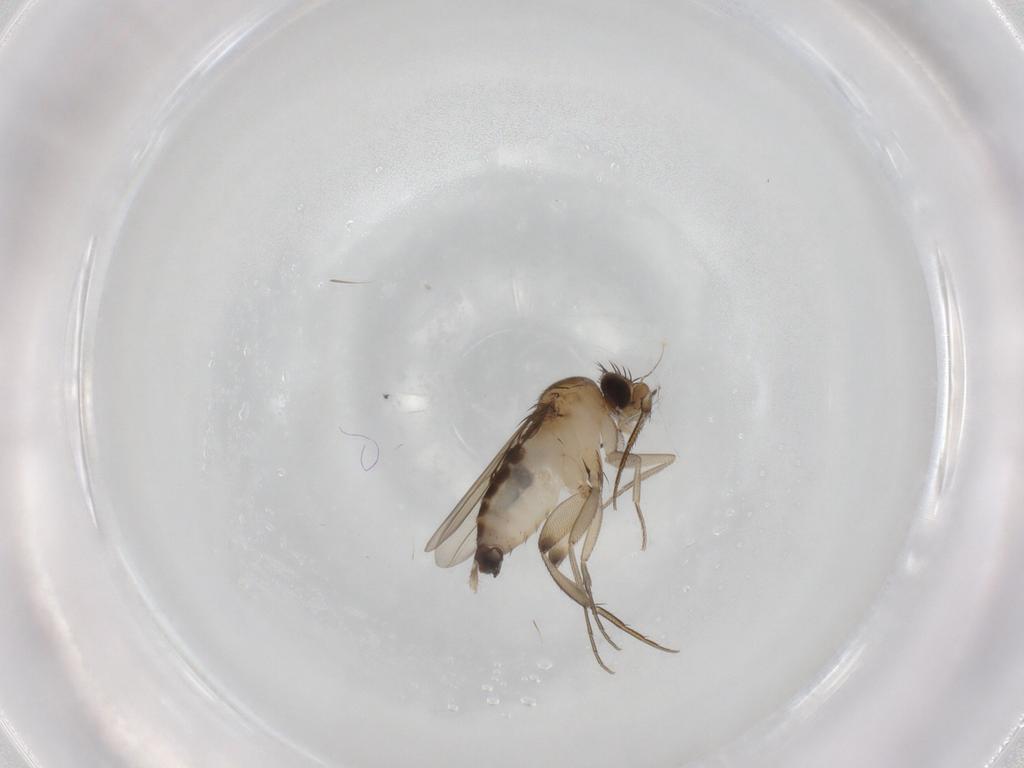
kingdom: Animalia
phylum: Arthropoda
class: Insecta
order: Diptera
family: Phoridae
